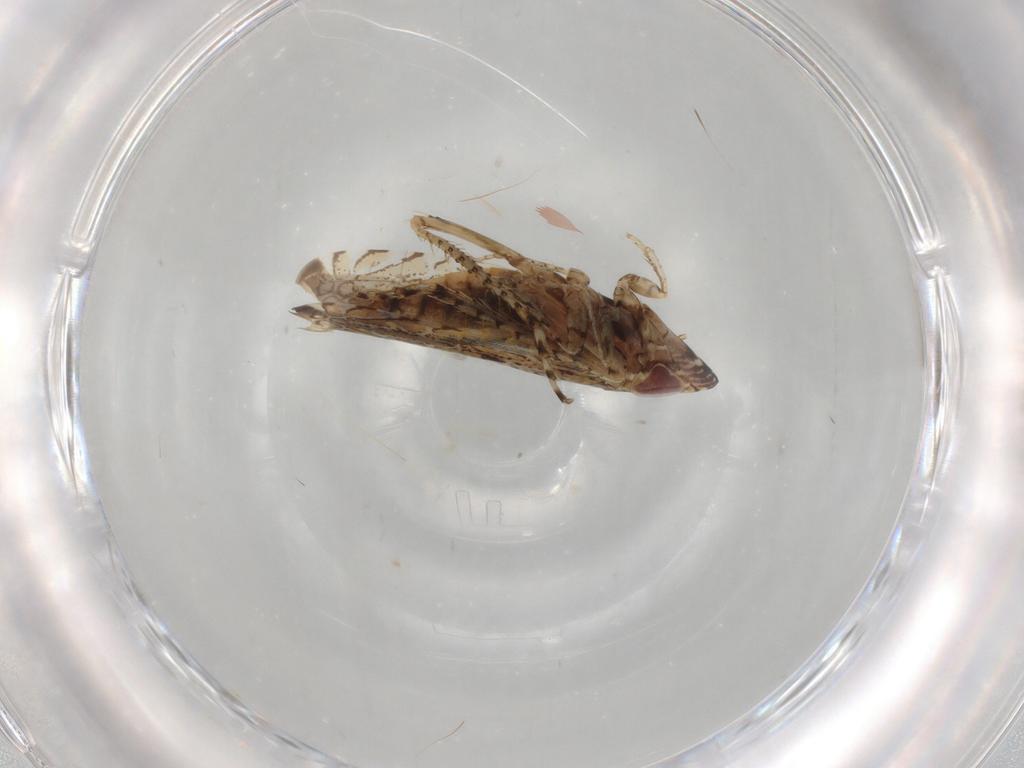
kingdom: Animalia
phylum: Arthropoda
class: Insecta
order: Hemiptera
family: Cicadellidae
